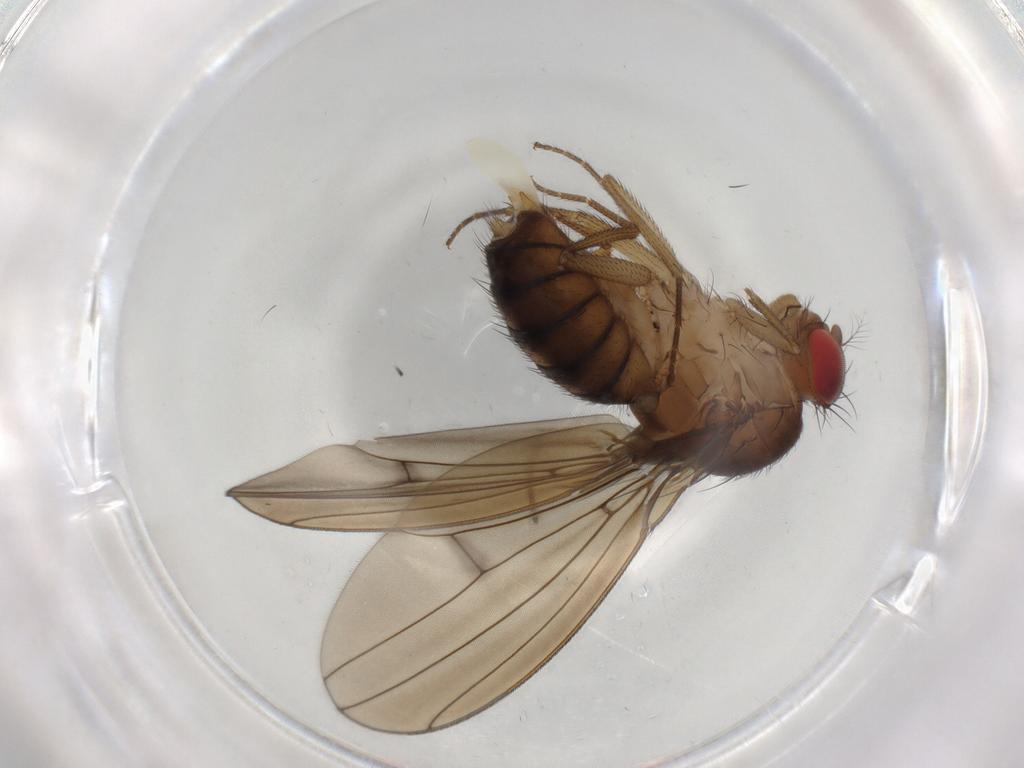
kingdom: Animalia
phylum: Arthropoda
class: Insecta
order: Diptera
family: Drosophilidae
